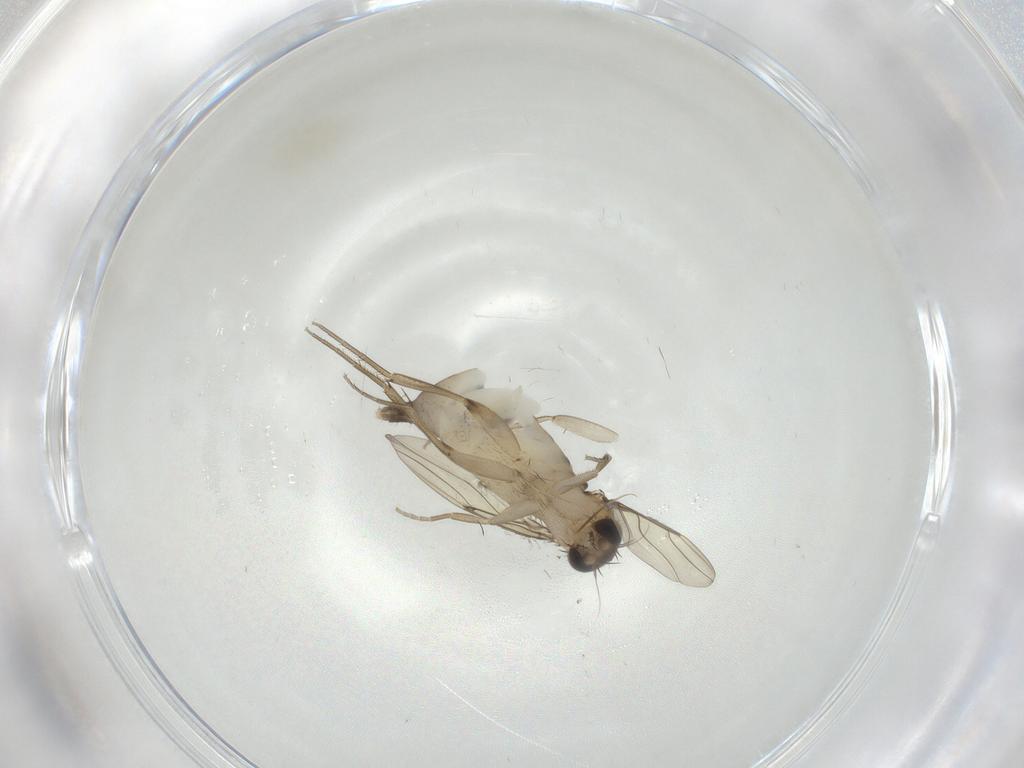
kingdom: Animalia
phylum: Arthropoda
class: Insecta
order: Diptera
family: Phoridae
